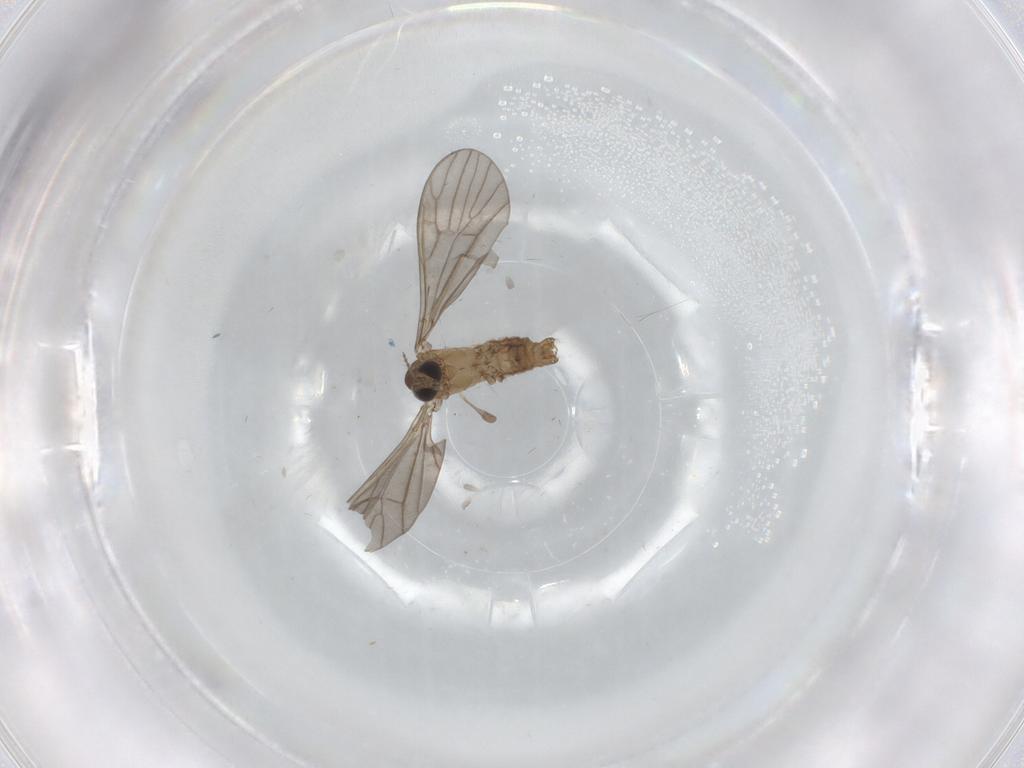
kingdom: Animalia
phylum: Arthropoda
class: Insecta
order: Diptera
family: Limoniidae
